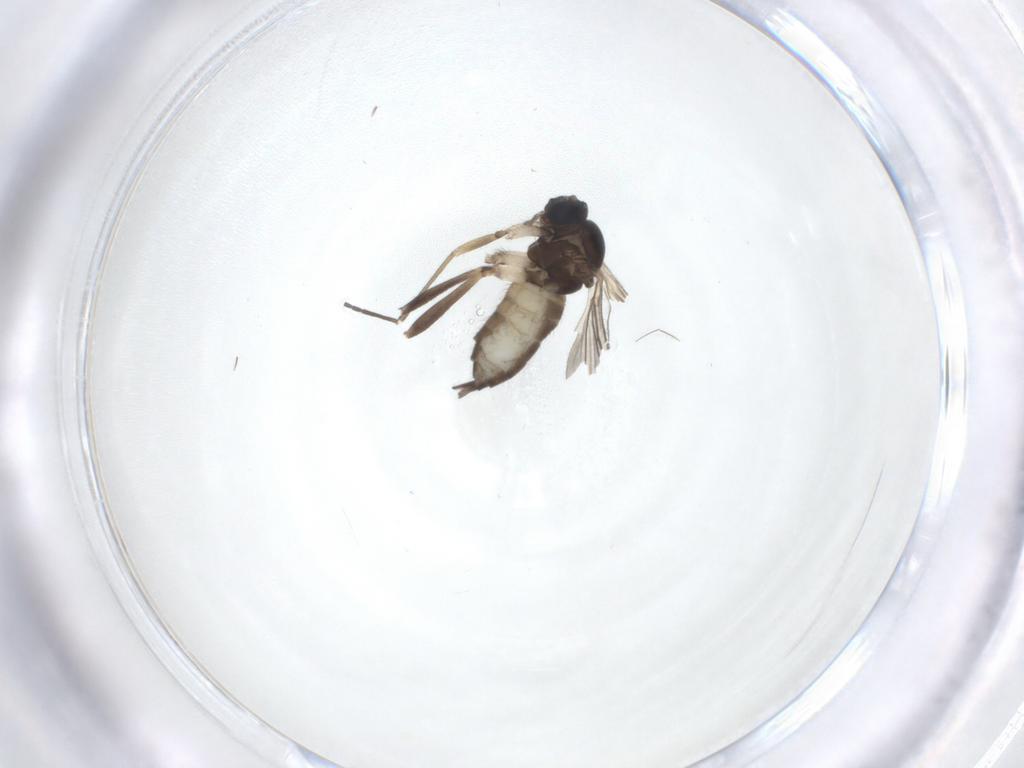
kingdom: Animalia
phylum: Arthropoda
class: Insecta
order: Diptera
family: Sciaridae
